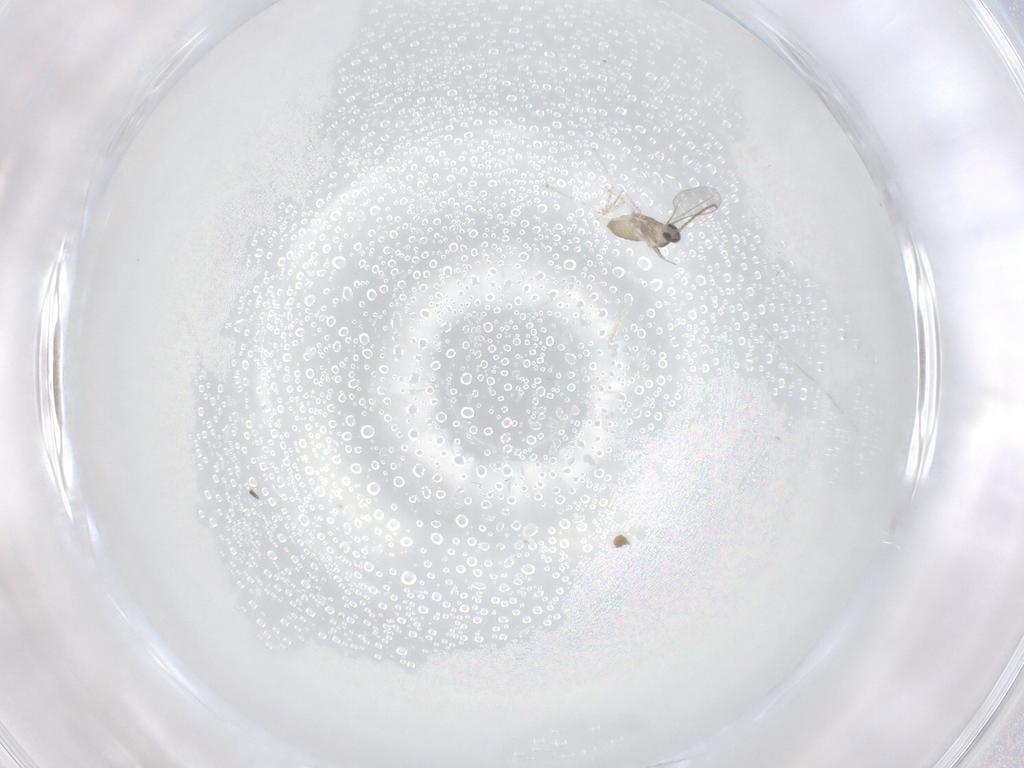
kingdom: Animalia
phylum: Arthropoda
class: Insecta
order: Diptera
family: Cecidomyiidae
